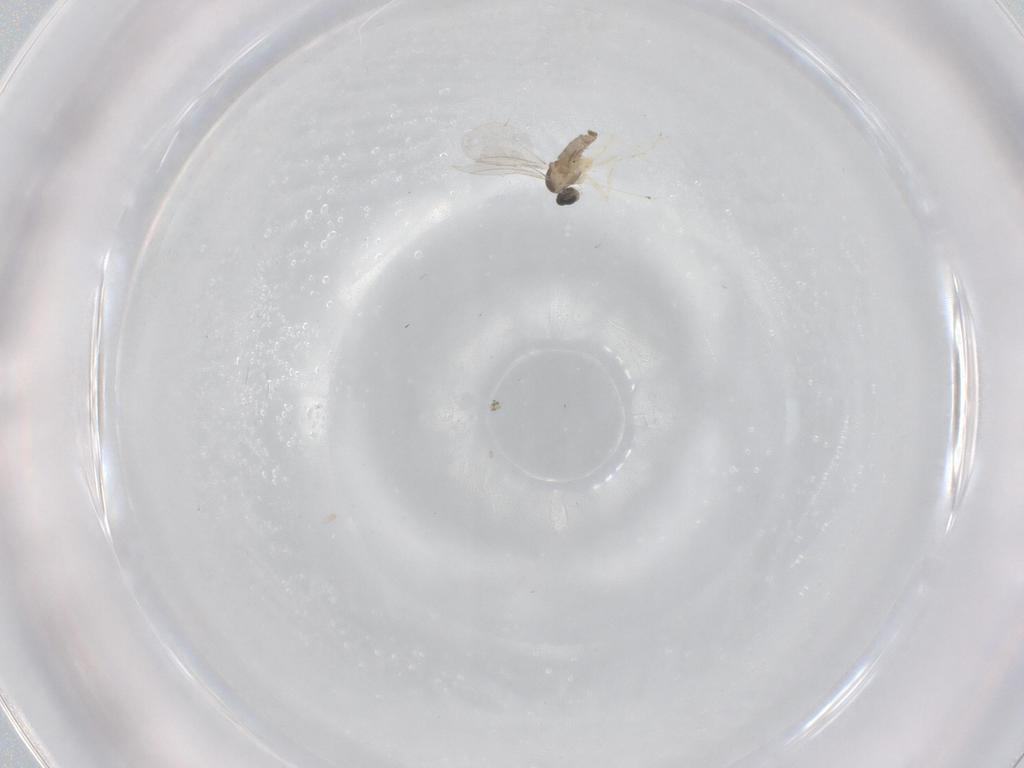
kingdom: Animalia
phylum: Arthropoda
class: Insecta
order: Diptera
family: Cecidomyiidae
